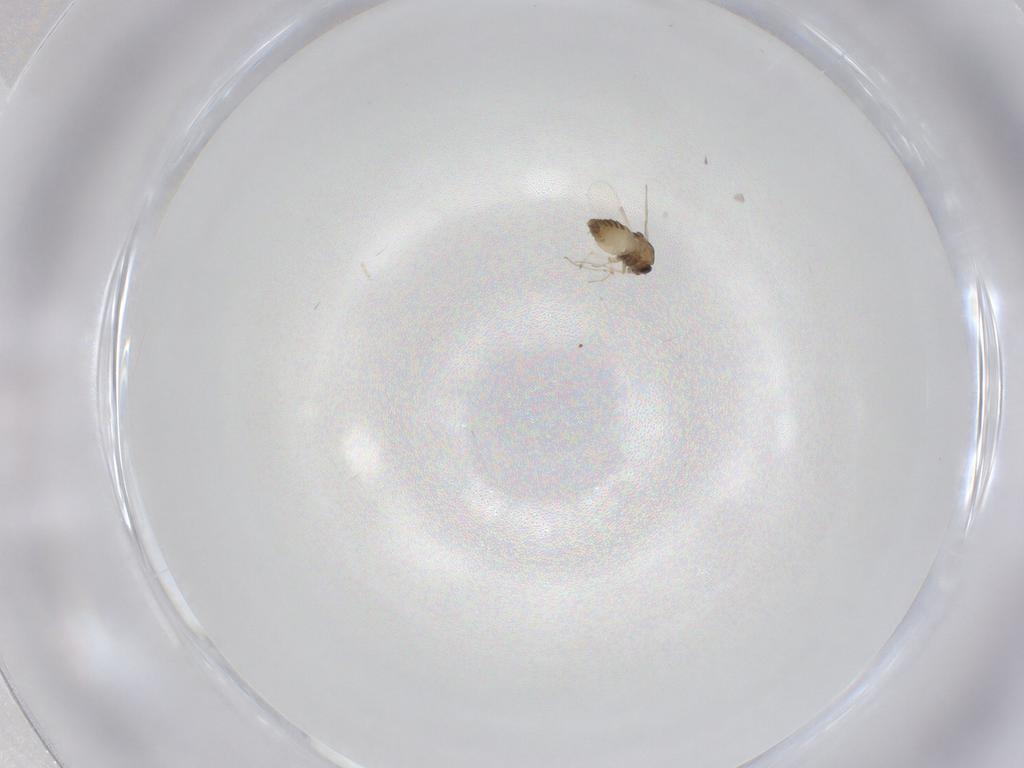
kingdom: Animalia
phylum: Arthropoda
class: Insecta
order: Diptera
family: Chironomidae
